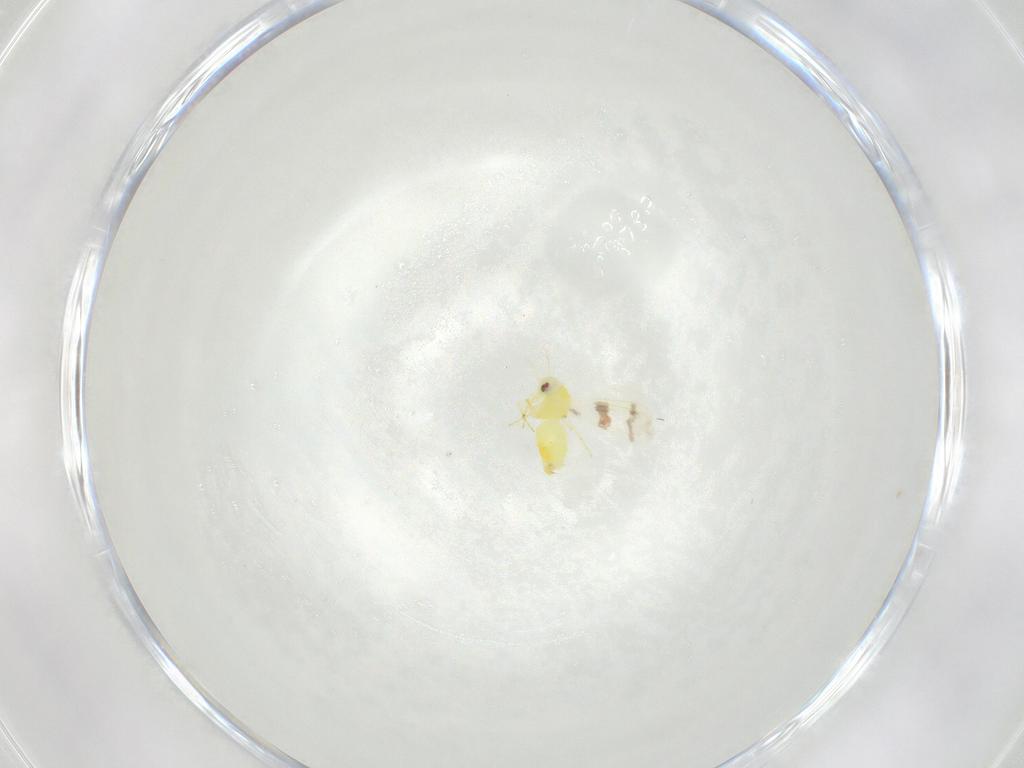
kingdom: Animalia
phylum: Arthropoda
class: Insecta
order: Hemiptera
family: Aleyrodidae
